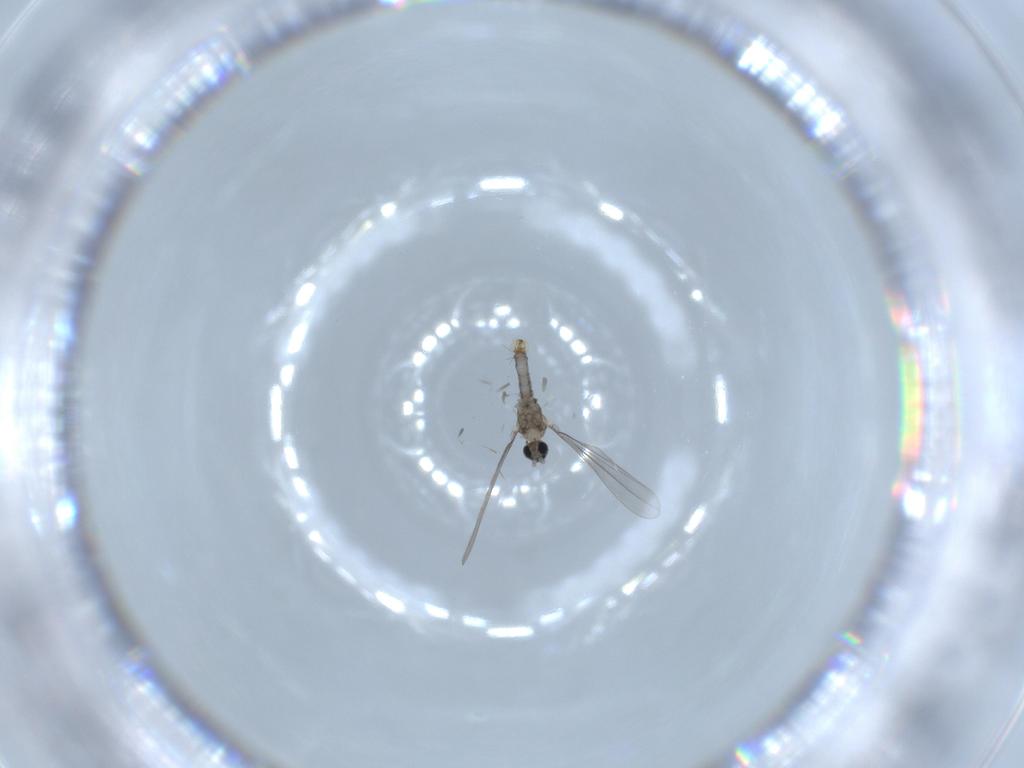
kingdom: Animalia
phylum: Arthropoda
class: Insecta
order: Diptera
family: Cecidomyiidae
